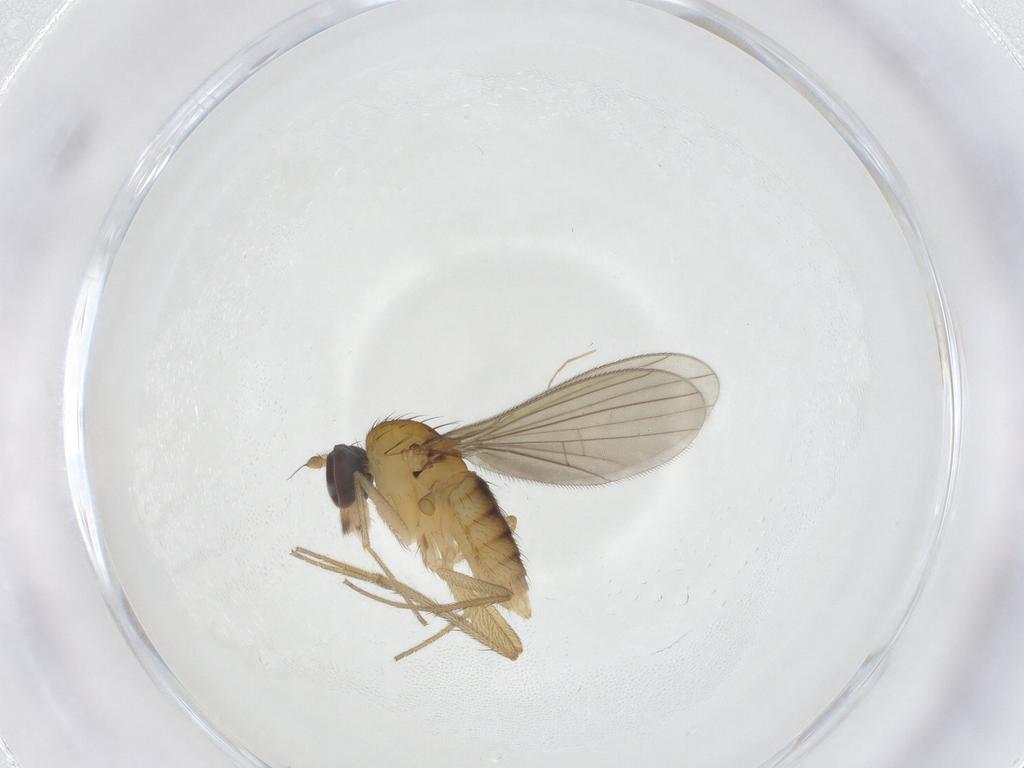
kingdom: Animalia
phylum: Arthropoda
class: Insecta
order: Diptera
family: Dolichopodidae
